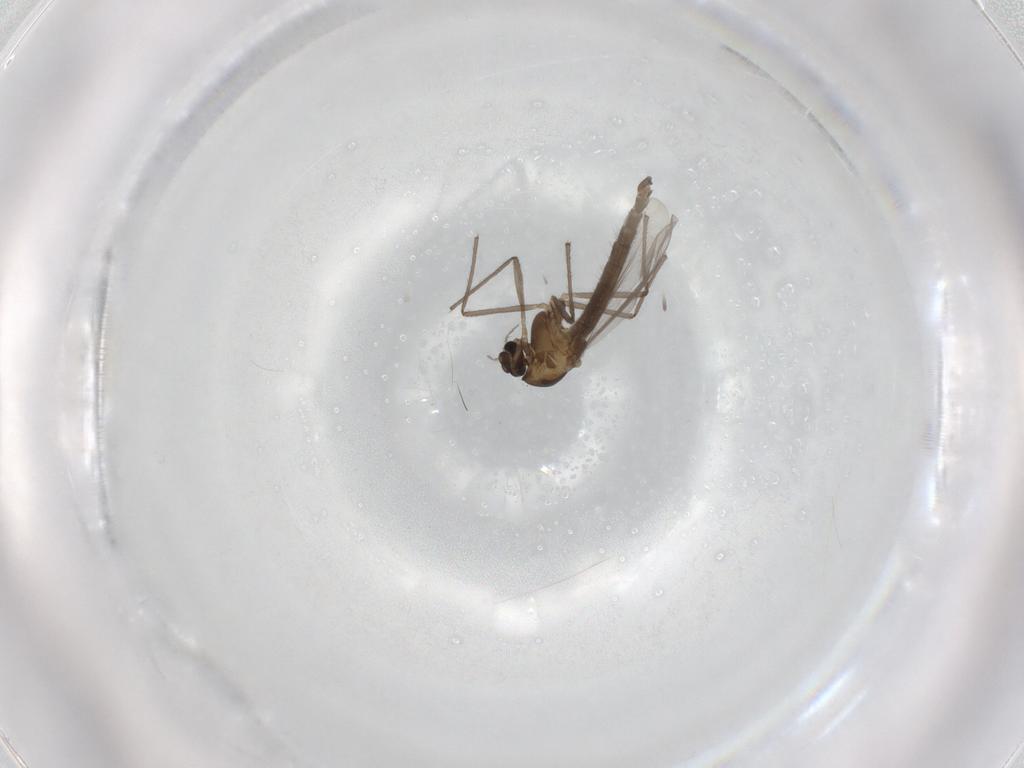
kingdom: Animalia
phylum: Arthropoda
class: Insecta
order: Diptera
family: Chironomidae
